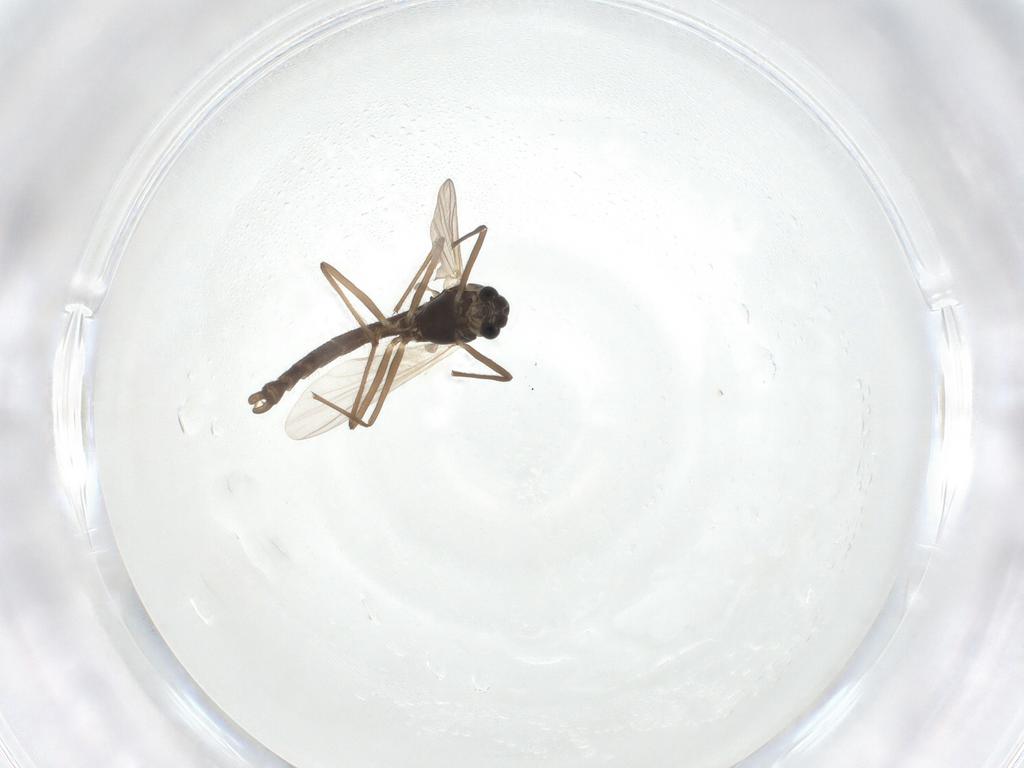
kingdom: Animalia
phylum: Arthropoda
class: Insecta
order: Diptera
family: Chironomidae
